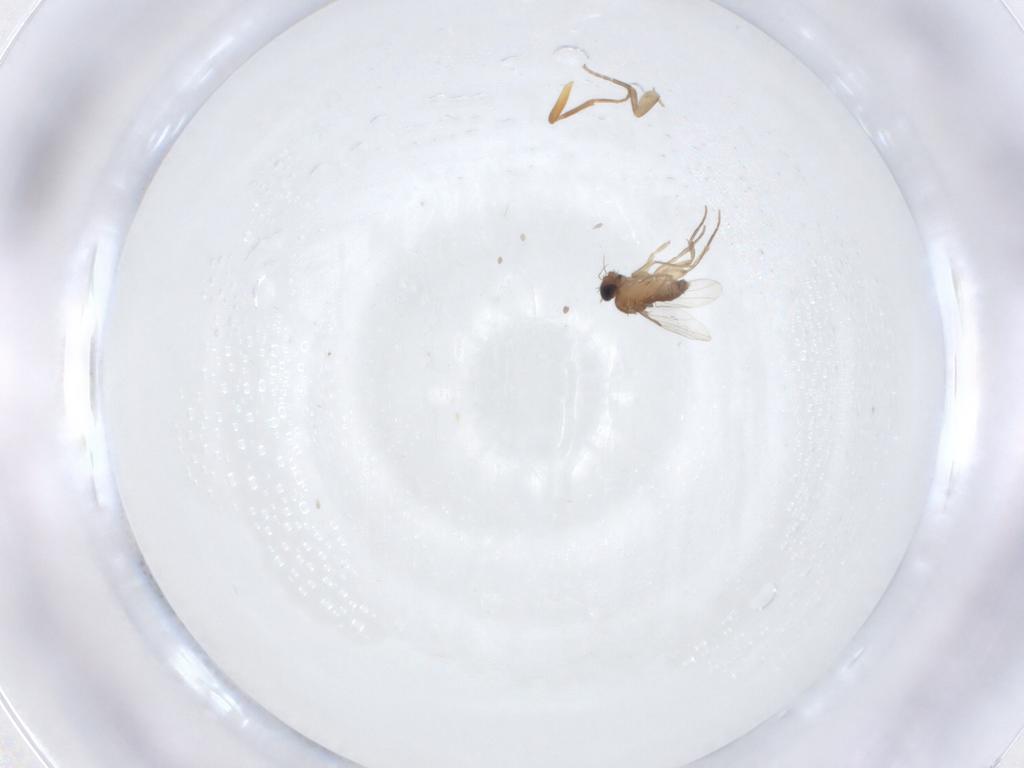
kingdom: Animalia
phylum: Arthropoda
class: Insecta
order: Diptera
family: Phoridae
